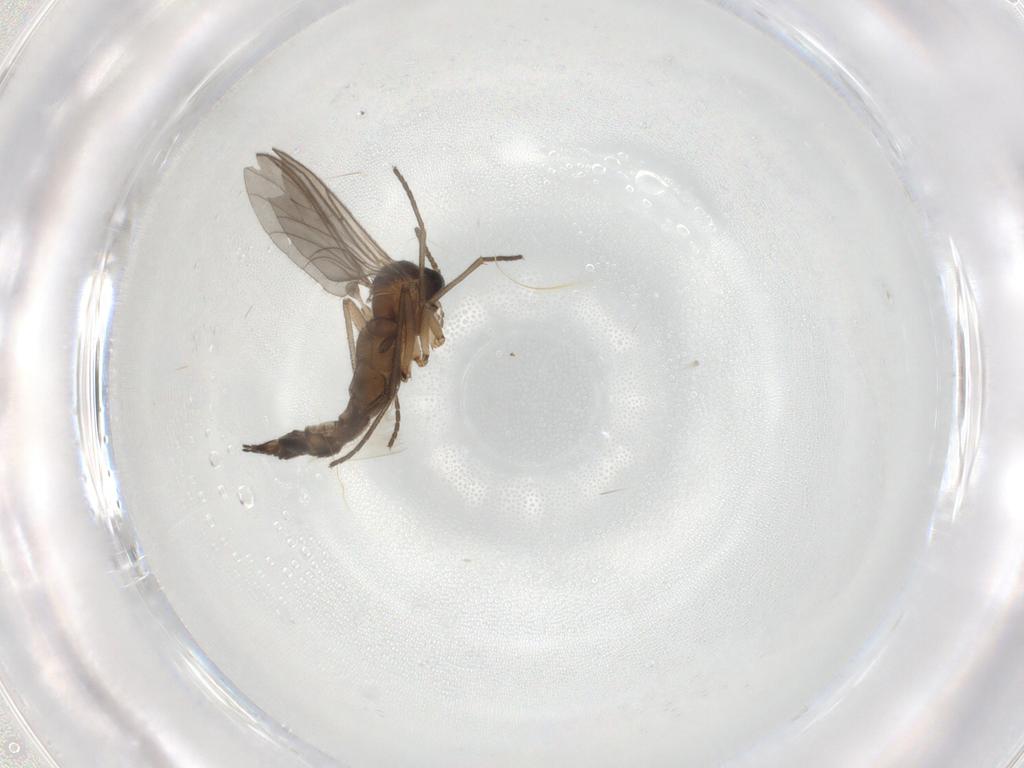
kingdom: Animalia
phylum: Arthropoda
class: Insecta
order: Diptera
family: Sciaridae
